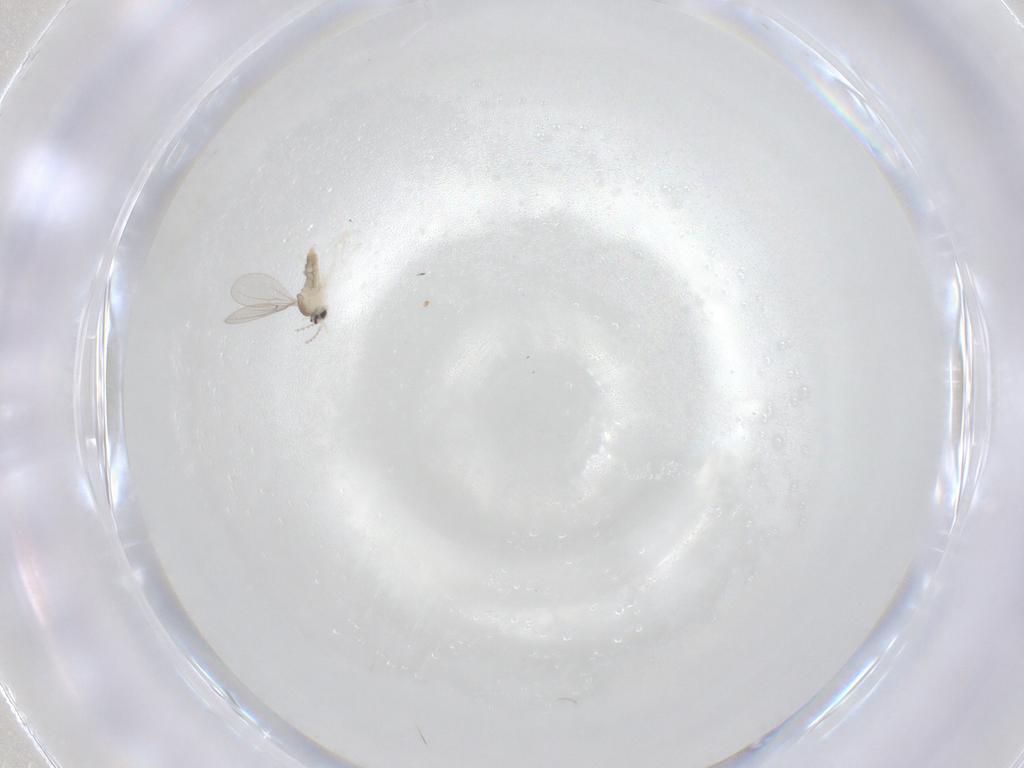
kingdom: Animalia
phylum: Arthropoda
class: Insecta
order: Diptera
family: Cecidomyiidae
